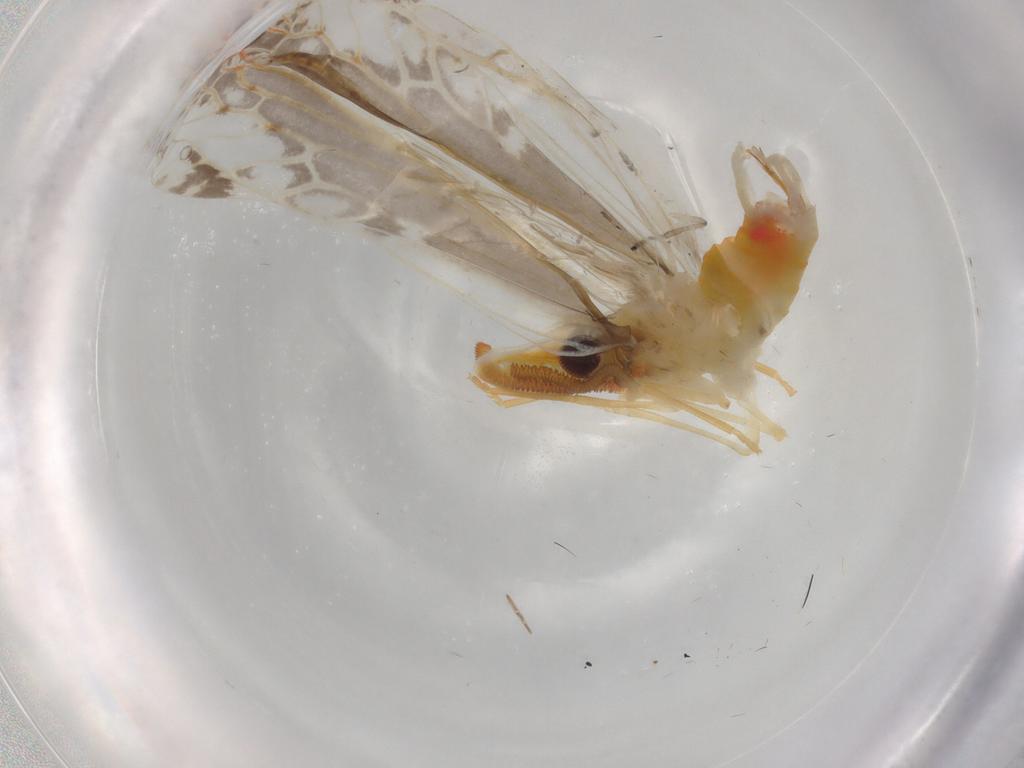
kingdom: Animalia
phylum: Arthropoda
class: Insecta
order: Hemiptera
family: Derbidae
